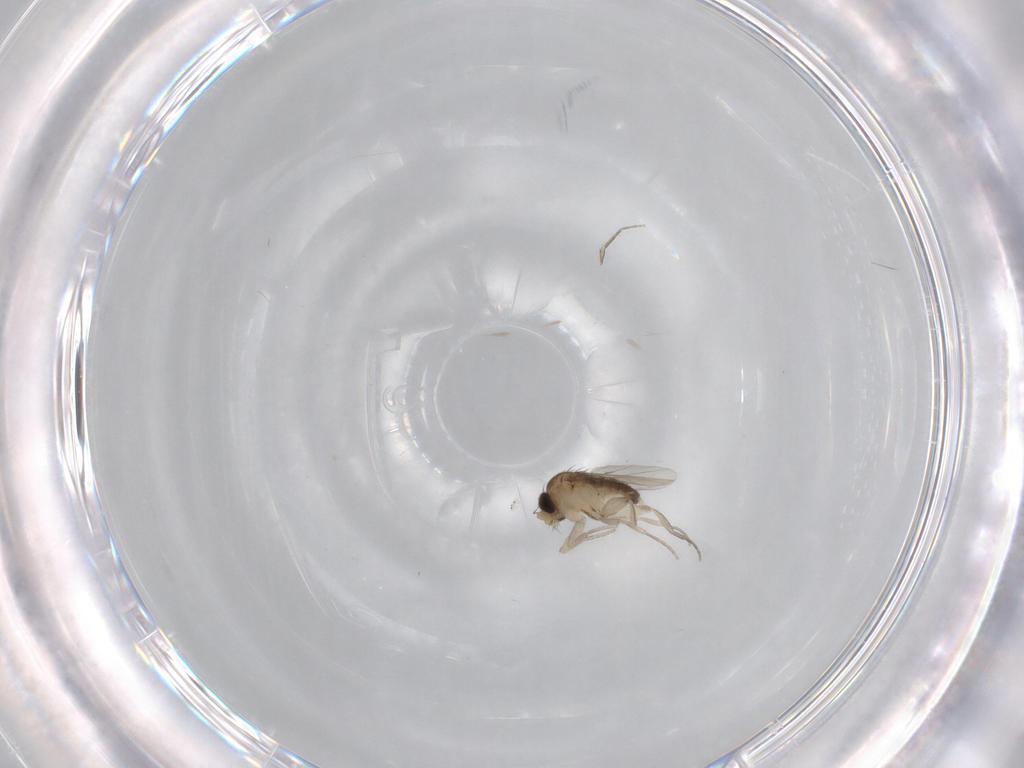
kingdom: Animalia
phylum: Arthropoda
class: Insecta
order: Diptera
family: Phoridae
